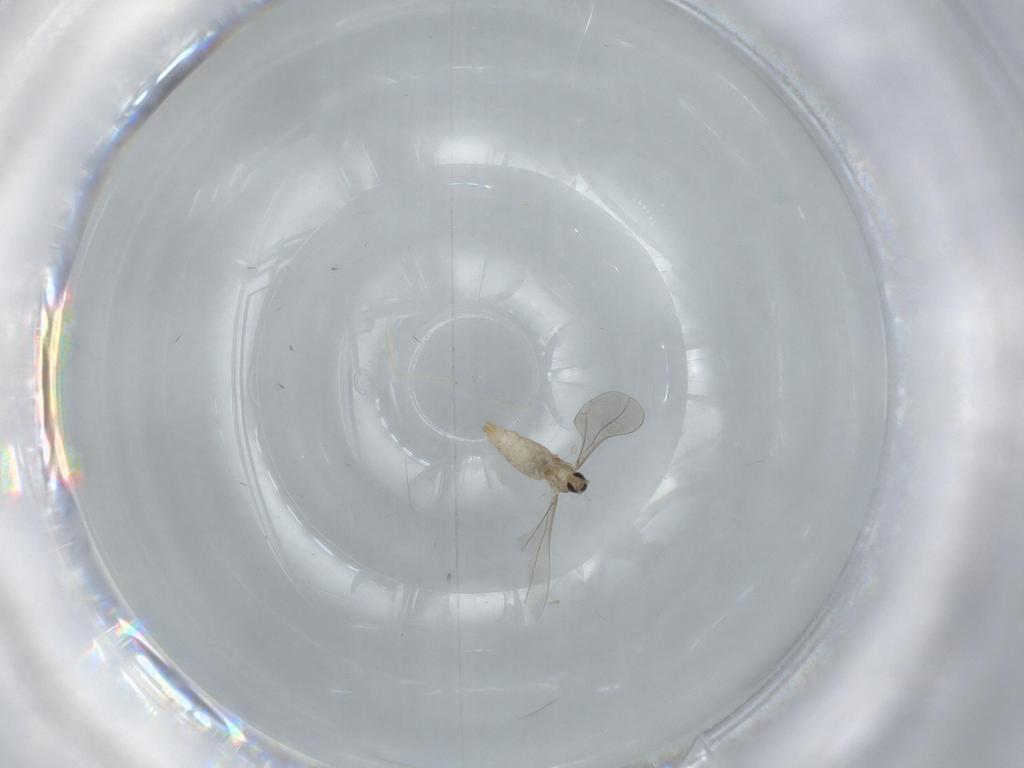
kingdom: Animalia
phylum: Arthropoda
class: Insecta
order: Diptera
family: Cecidomyiidae
